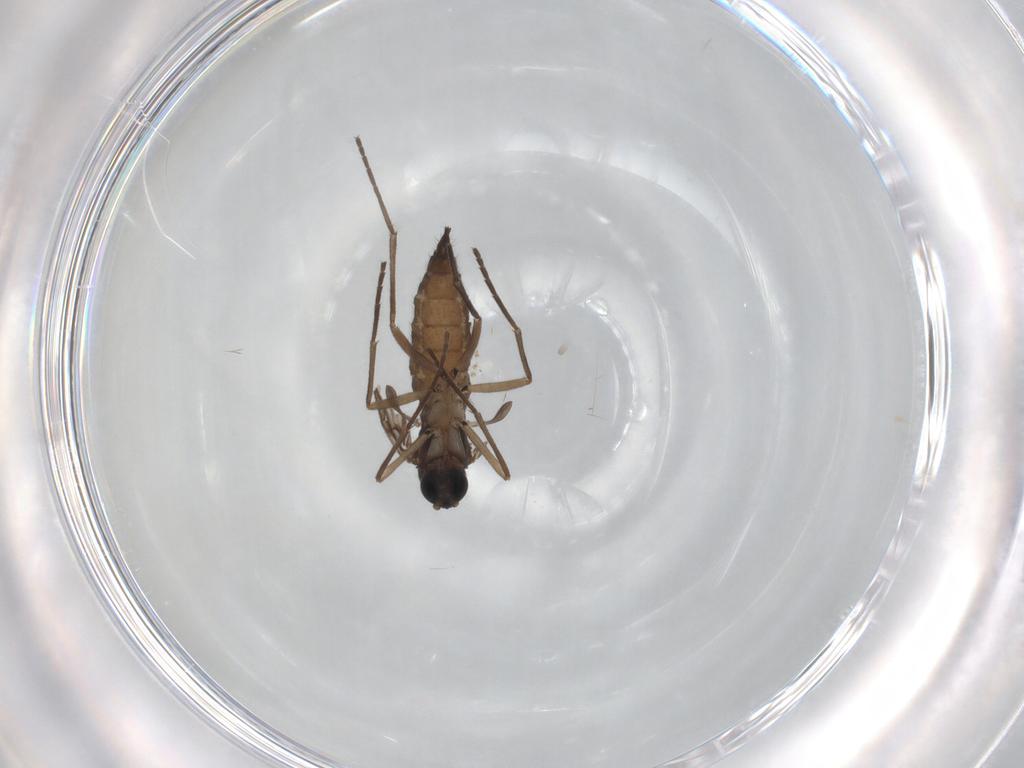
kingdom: Animalia
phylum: Arthropoda
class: Insecta
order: Diptera
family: Sciaridae
